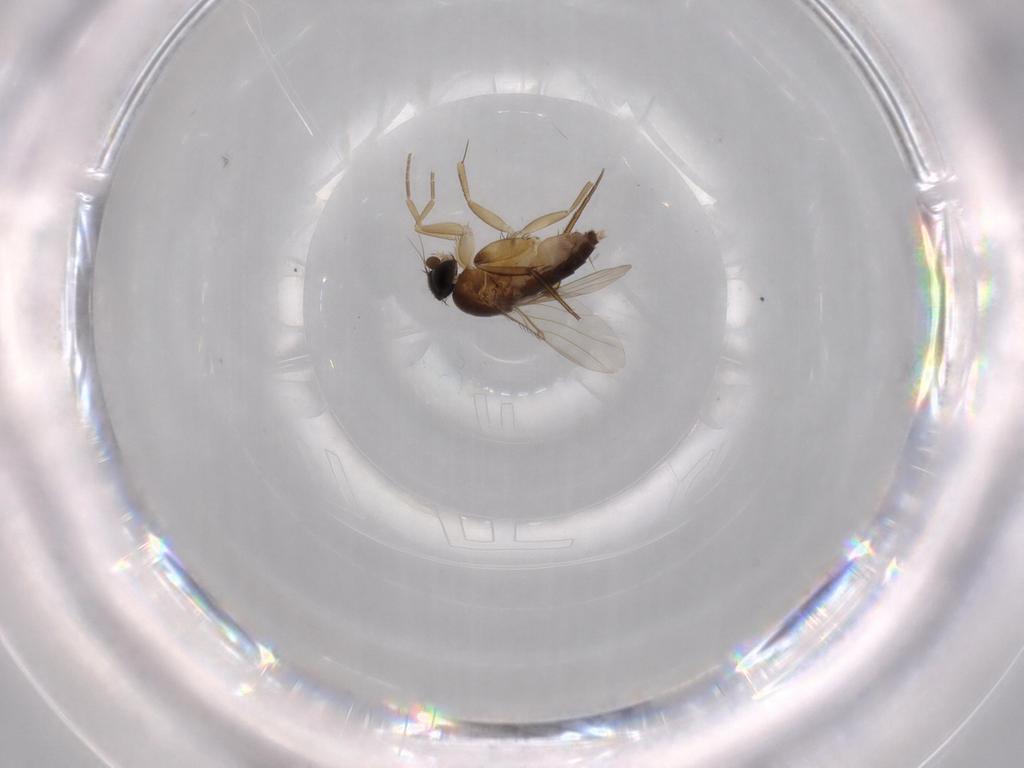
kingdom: Animalia
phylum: Arthropoda
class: Insecta
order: Diptera
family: Phoridae
